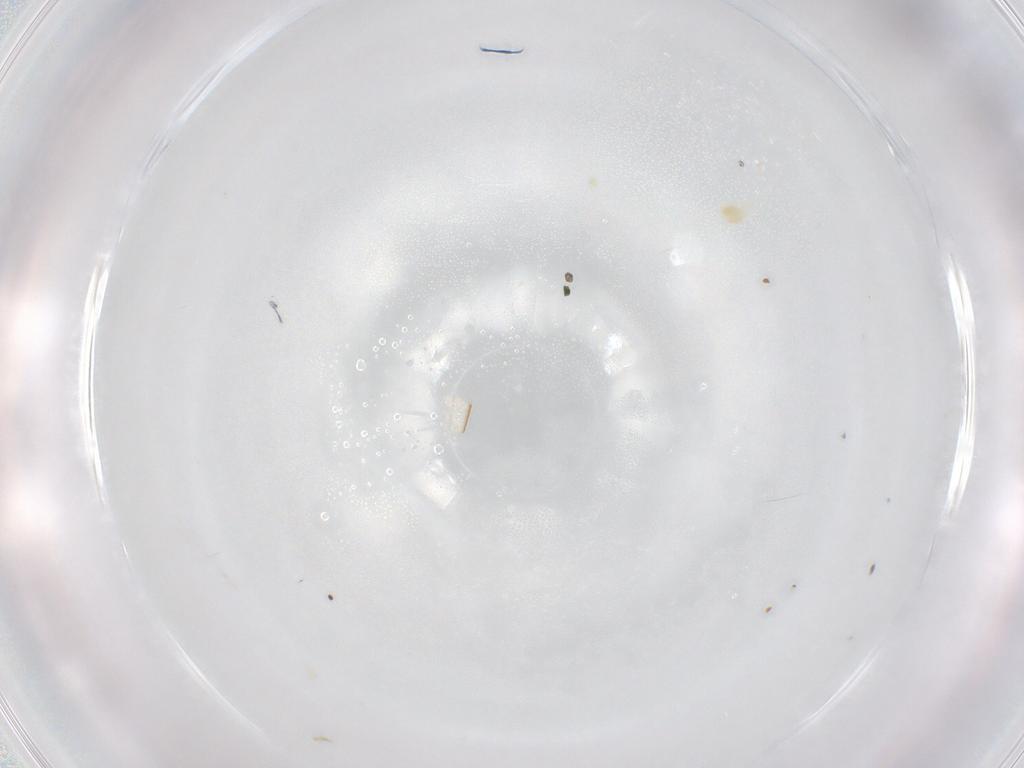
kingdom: Animalia
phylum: Arthropoda
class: Arachnida
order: Trombidiformes
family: Eupodidae
